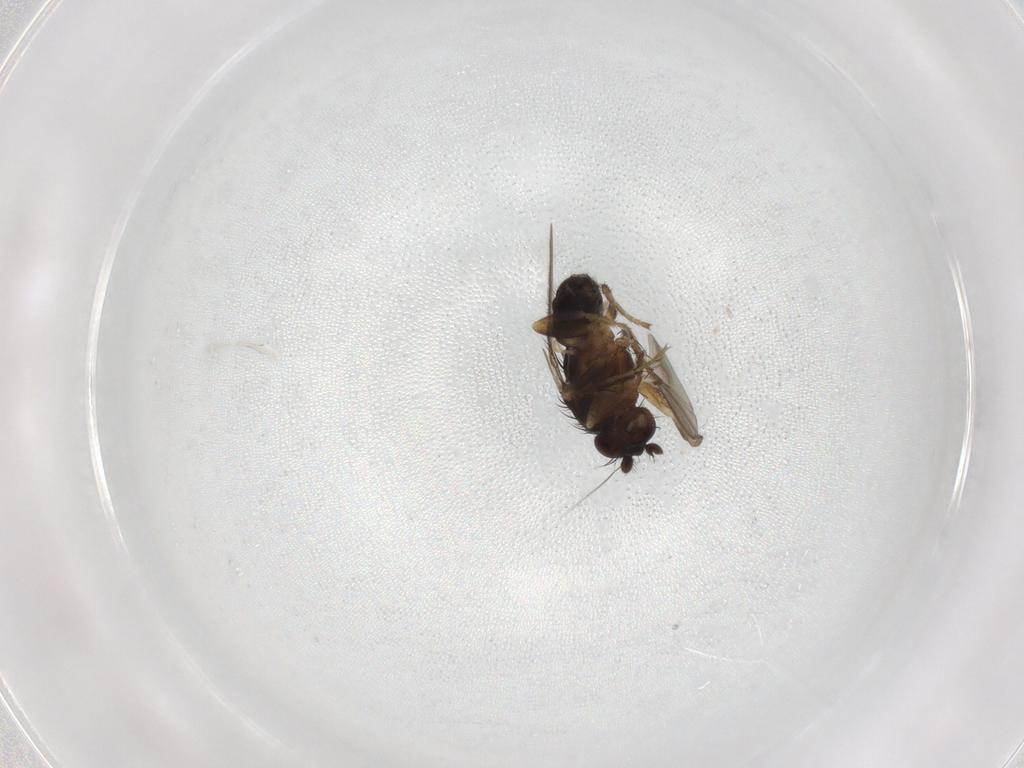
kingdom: Animalia
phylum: Arthropoda
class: Insecta
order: Diptera
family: Sphaeroceridae
